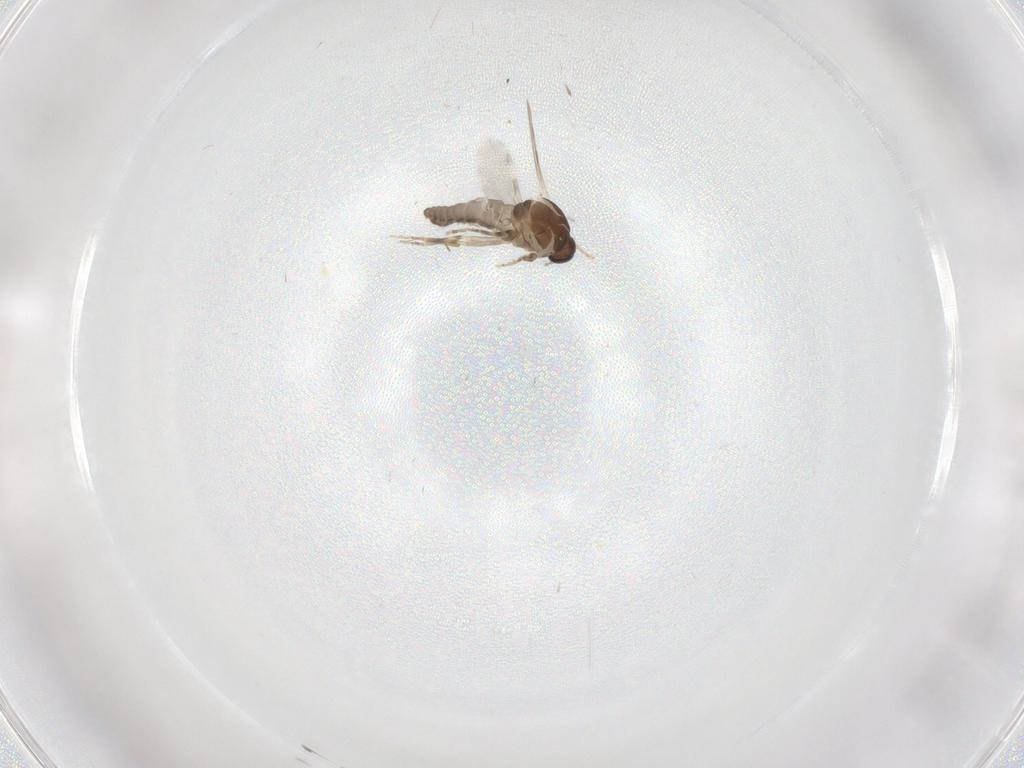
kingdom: Animalia
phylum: Arthropoda
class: Insecta
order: Diptera
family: Ceratopogonidae
